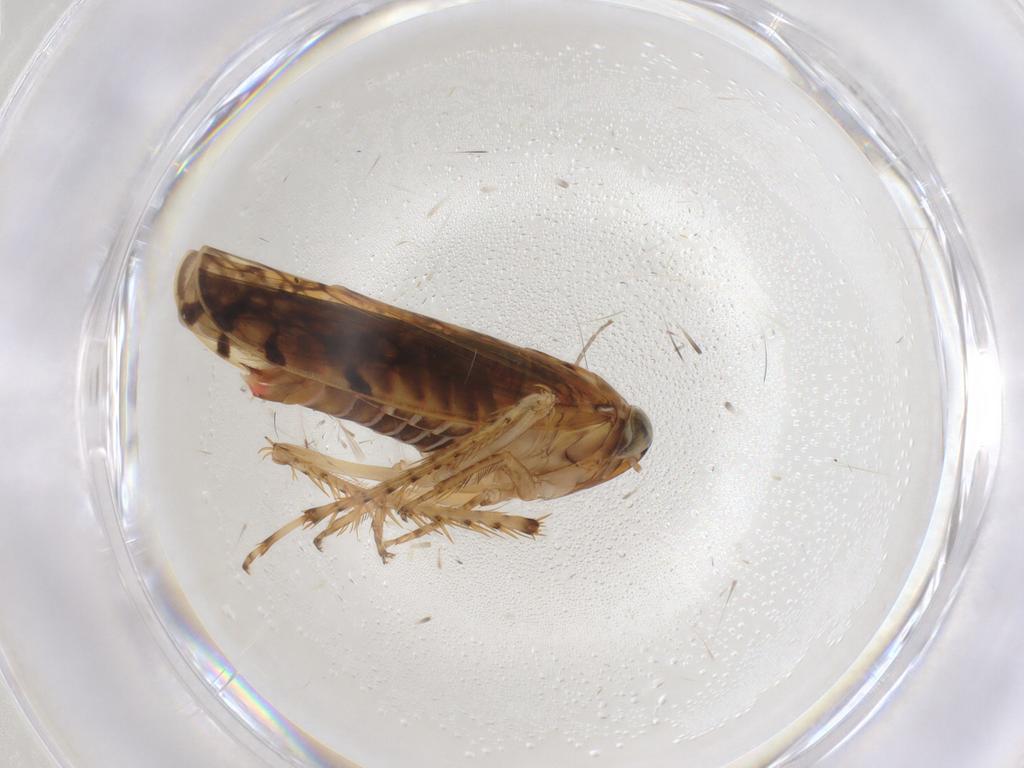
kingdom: Animalia
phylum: Arthropoda
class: Insecta
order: Hemiptera
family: Cicadellidae
